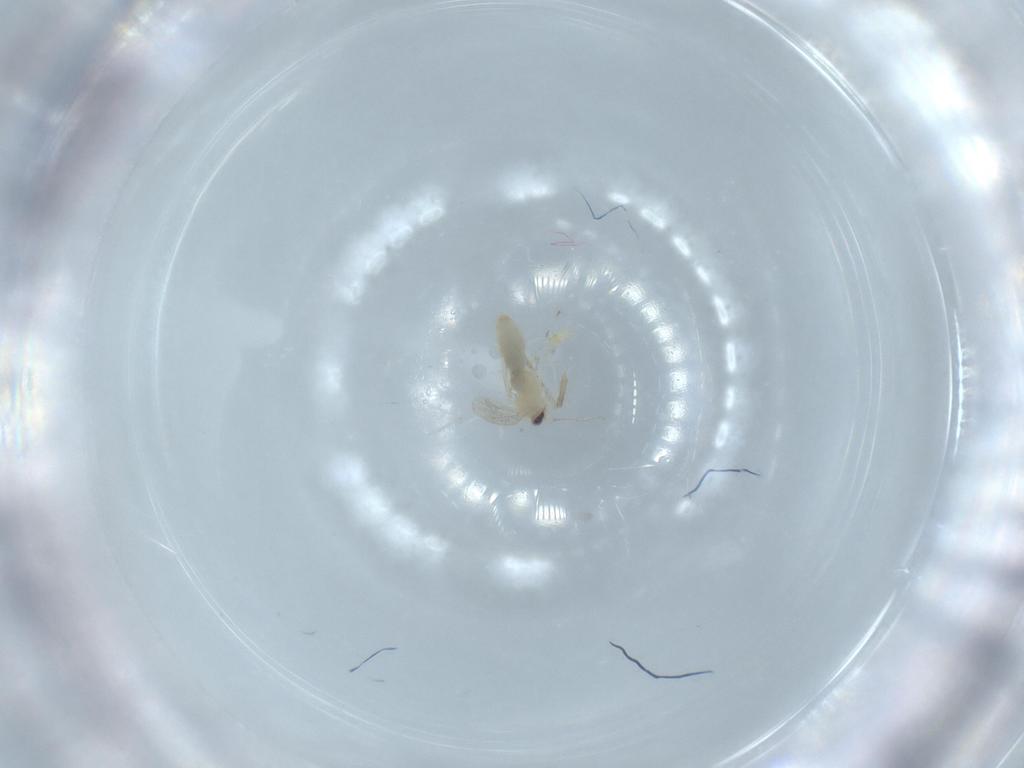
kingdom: Animalia
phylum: Arthropoda
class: Insecta
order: Diptera
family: Cecidomyiidae
